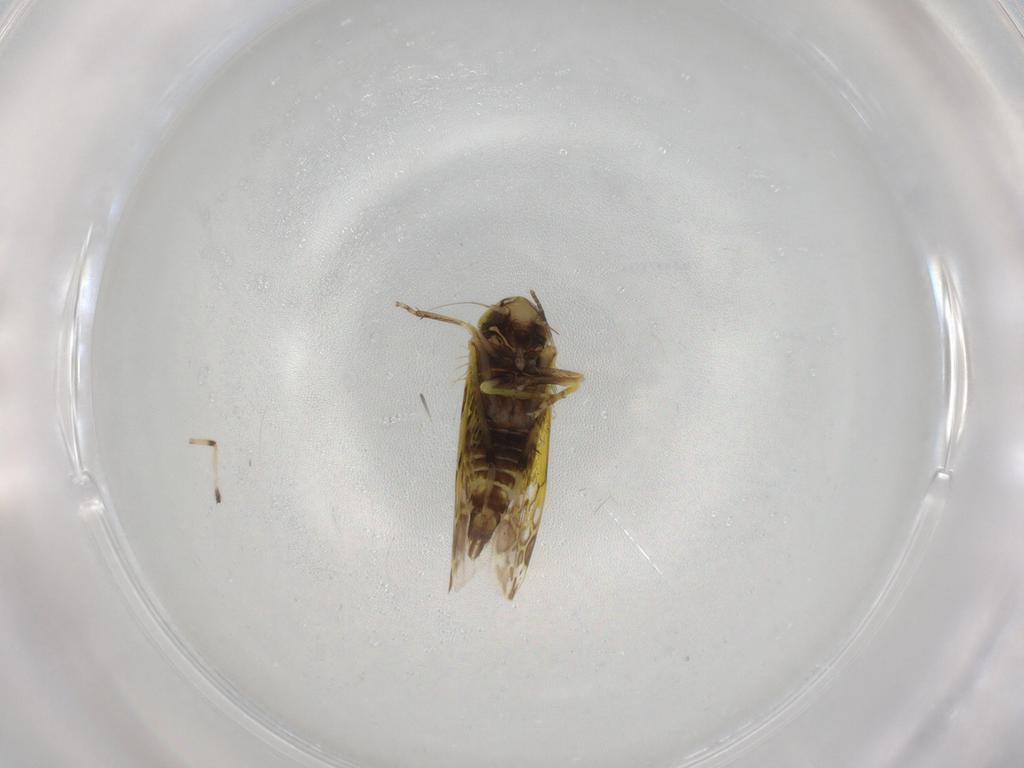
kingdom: Animalia
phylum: Arthropoda
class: Insecta
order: Hemiptera
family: Cicadellidae
